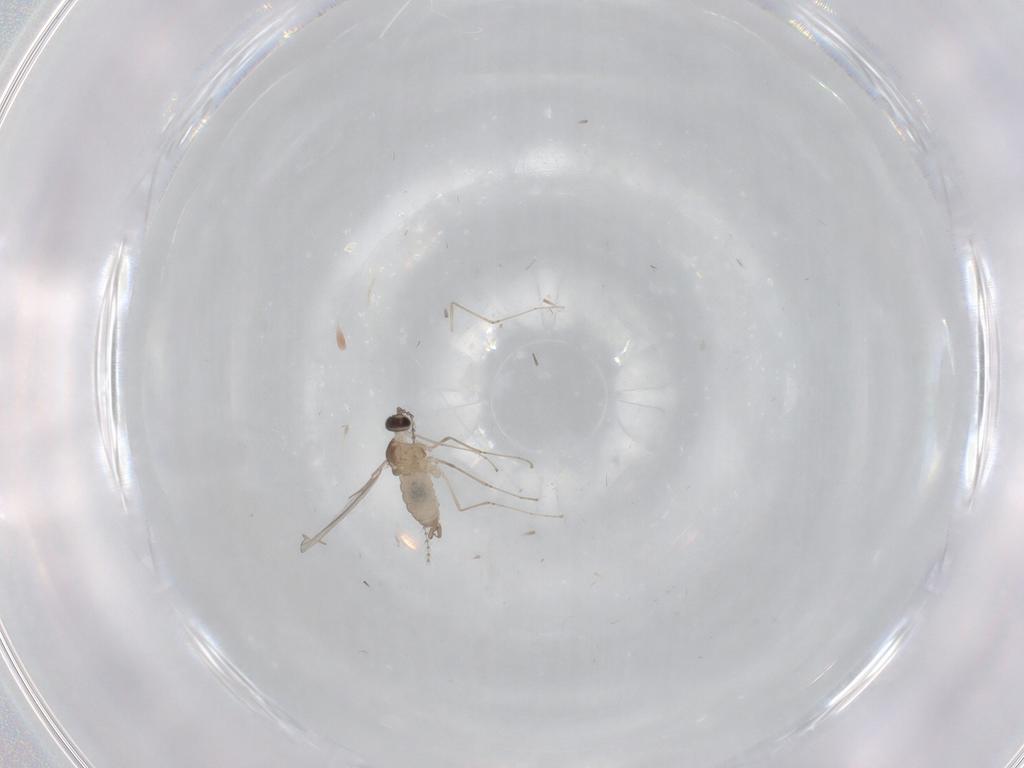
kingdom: Animalia
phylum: Arthropoda
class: Insecta
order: Diptera
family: Cecidomyiidae
